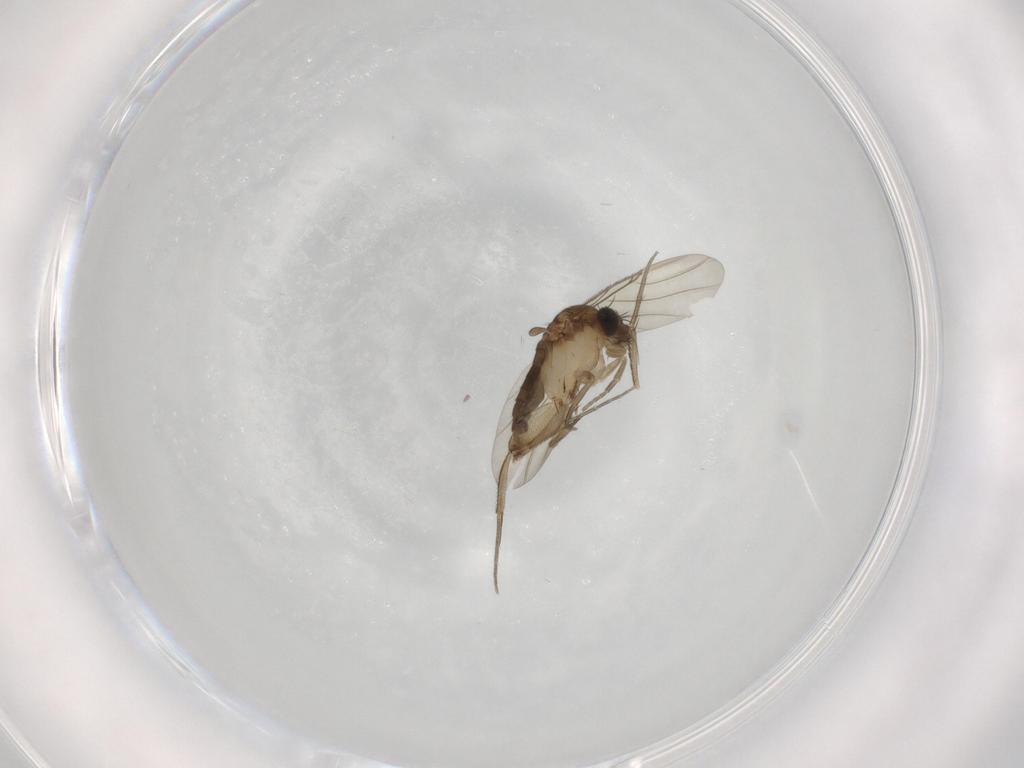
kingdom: Animalia
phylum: Arthropoda
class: Insecta
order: Diptera
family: Phoridae
